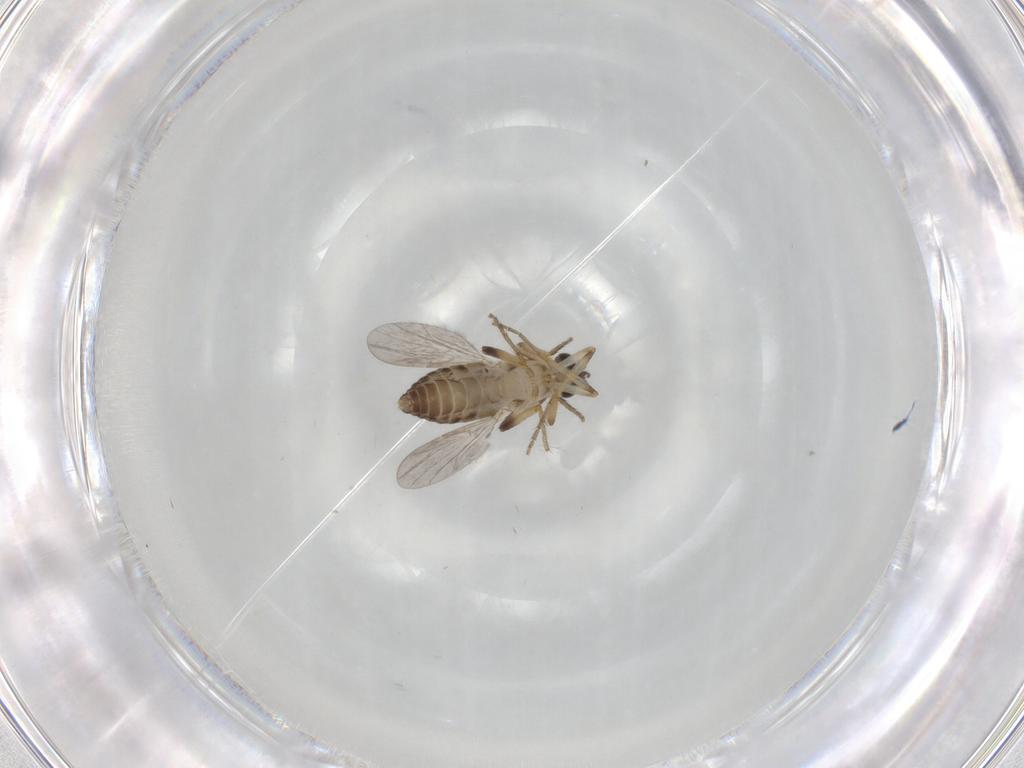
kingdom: Animalia
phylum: Arthropoda
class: Insecta
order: Diptera
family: Ceratopogonidae
